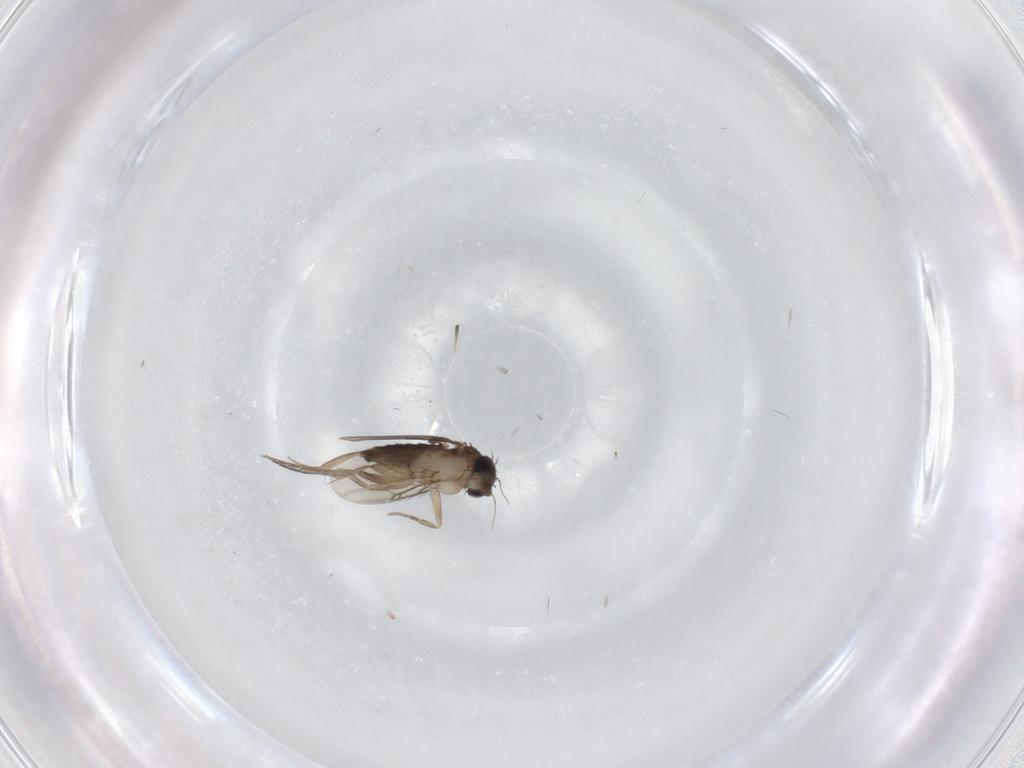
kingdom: Animalia
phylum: Arthropoda
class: Insecta
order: Diptera
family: Phoridae
